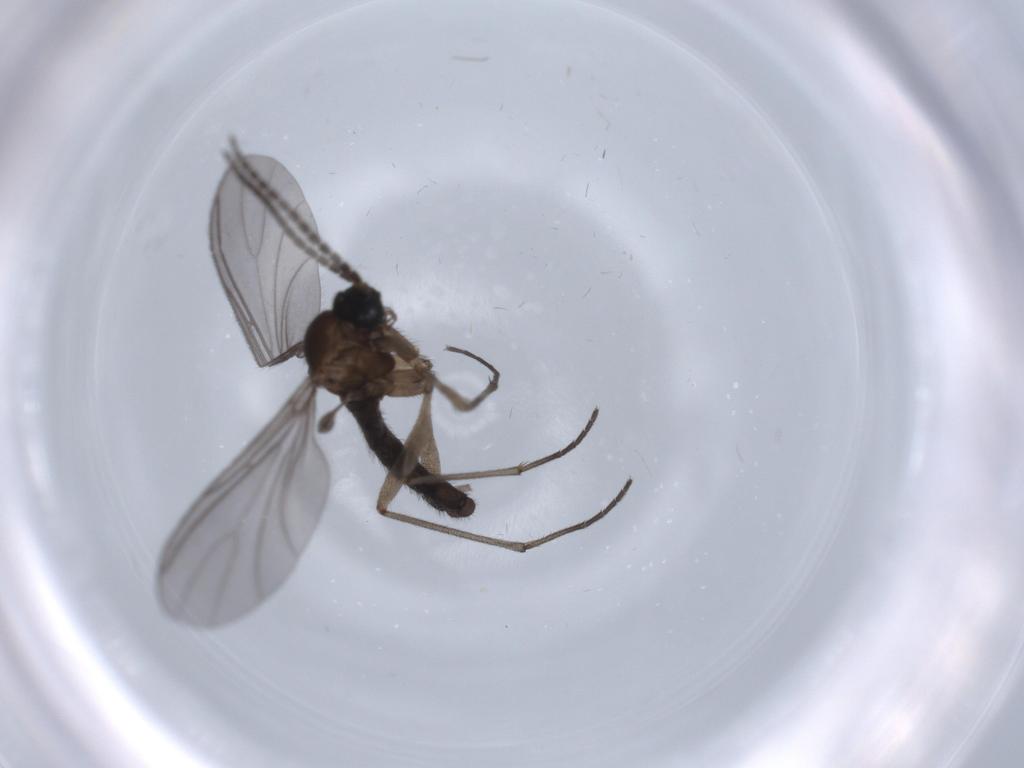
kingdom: Animalia
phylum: Arthropoda
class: Insecta
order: Diptera
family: Sciaridae
